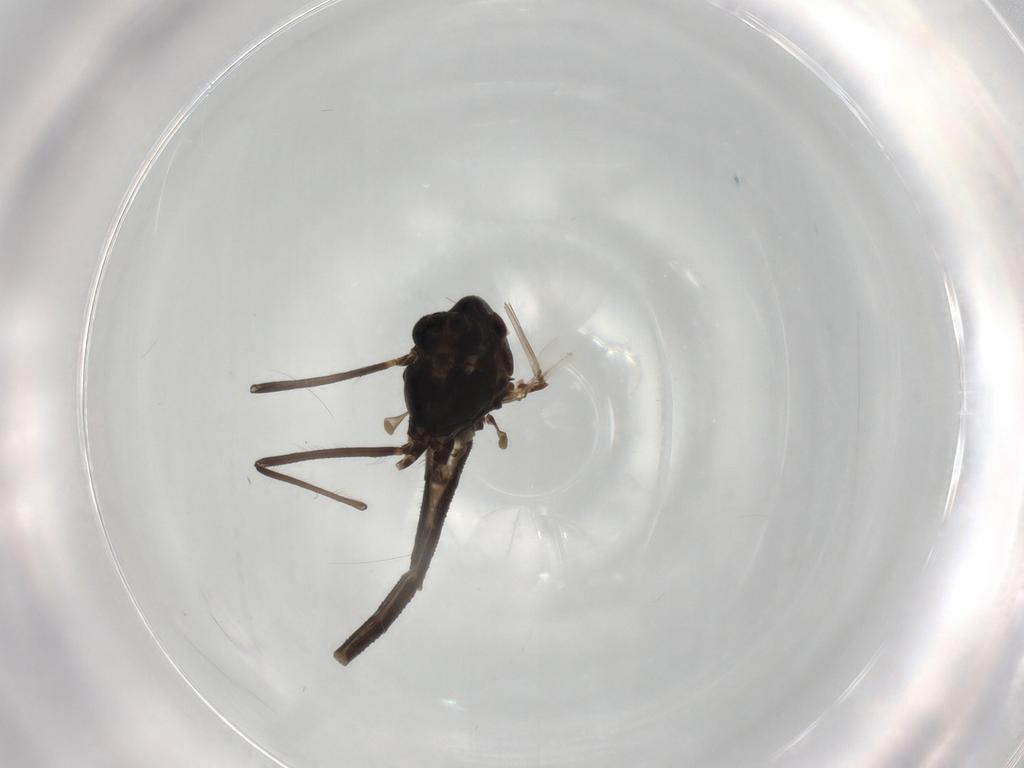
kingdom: Animalia
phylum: Arthropoda
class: Insecta
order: Diptera
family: Chironomidae
